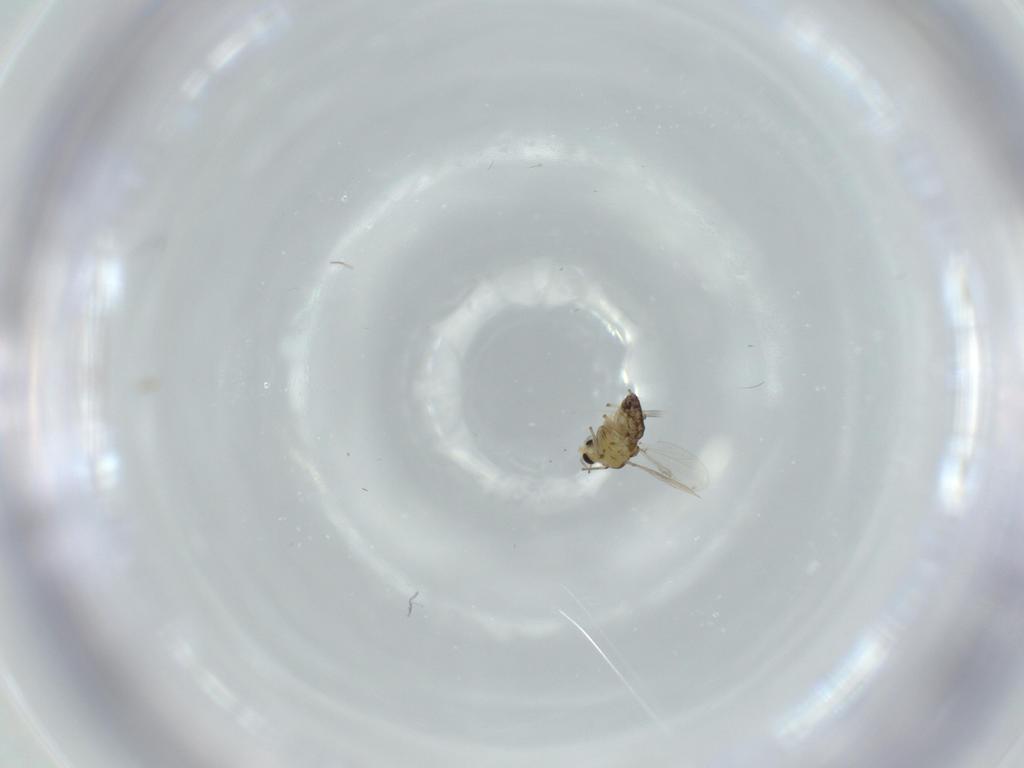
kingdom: Animalia
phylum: Arthropoda
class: Insecta
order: Diptera
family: Chironomidae
